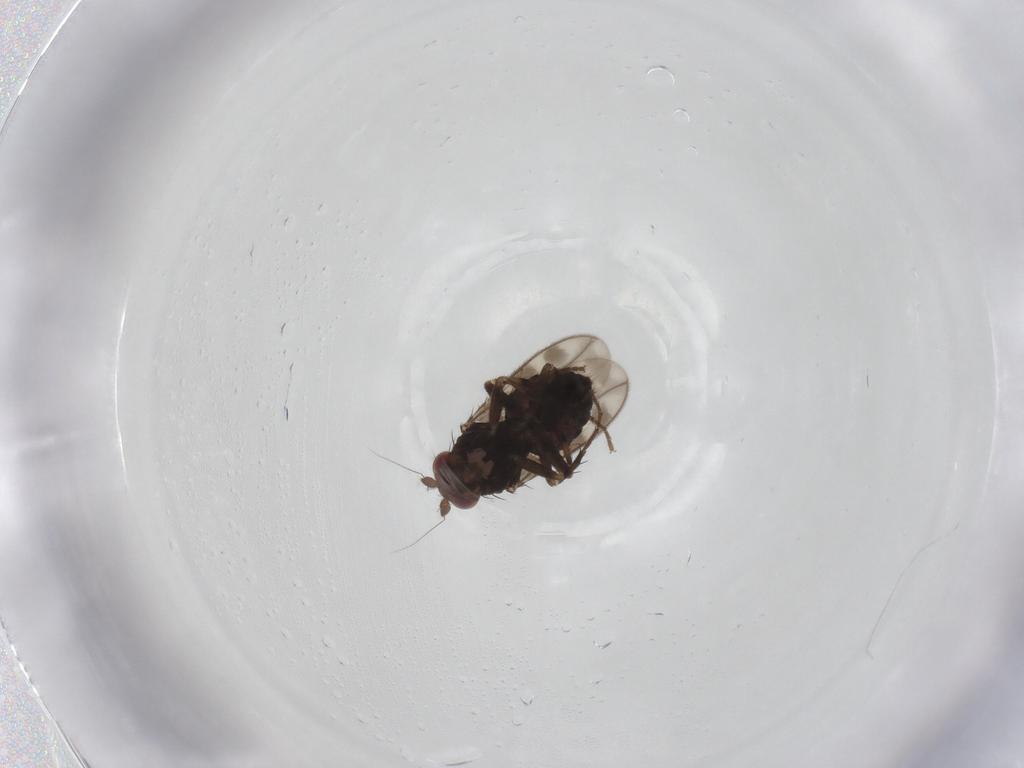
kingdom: Animalia
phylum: Arthropoda
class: Insecta
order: Diptera
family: Sphaeroceridae
